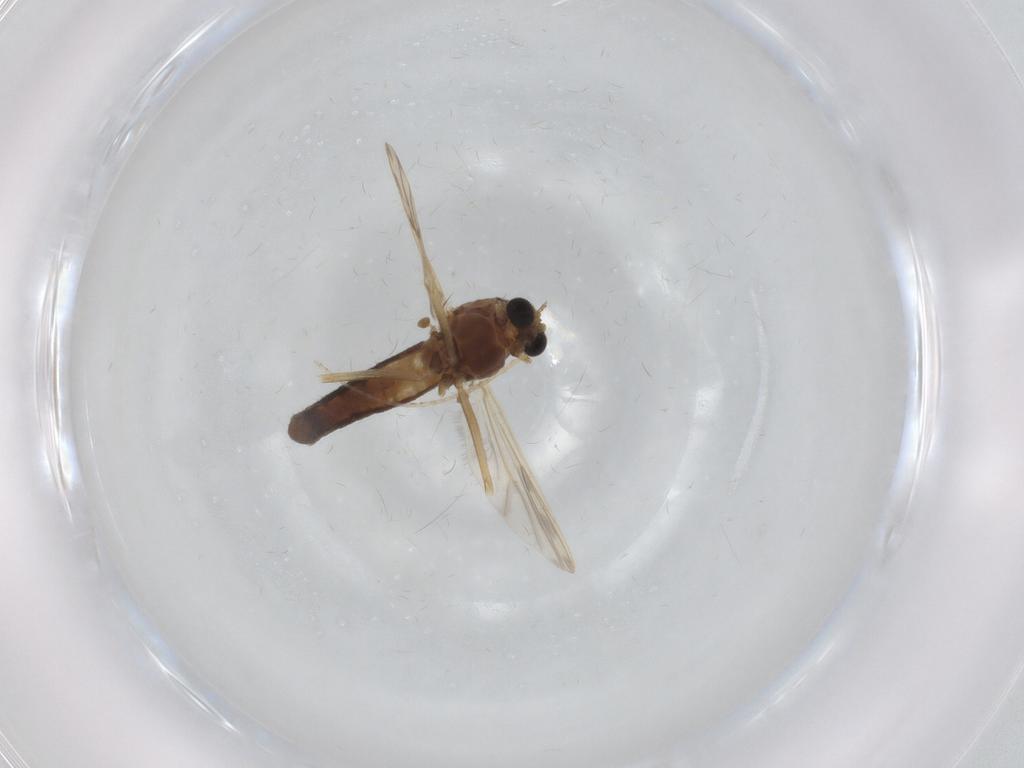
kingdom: Animalia
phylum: Arthropoda
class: Insecta
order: Diptera
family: Chironomidae
